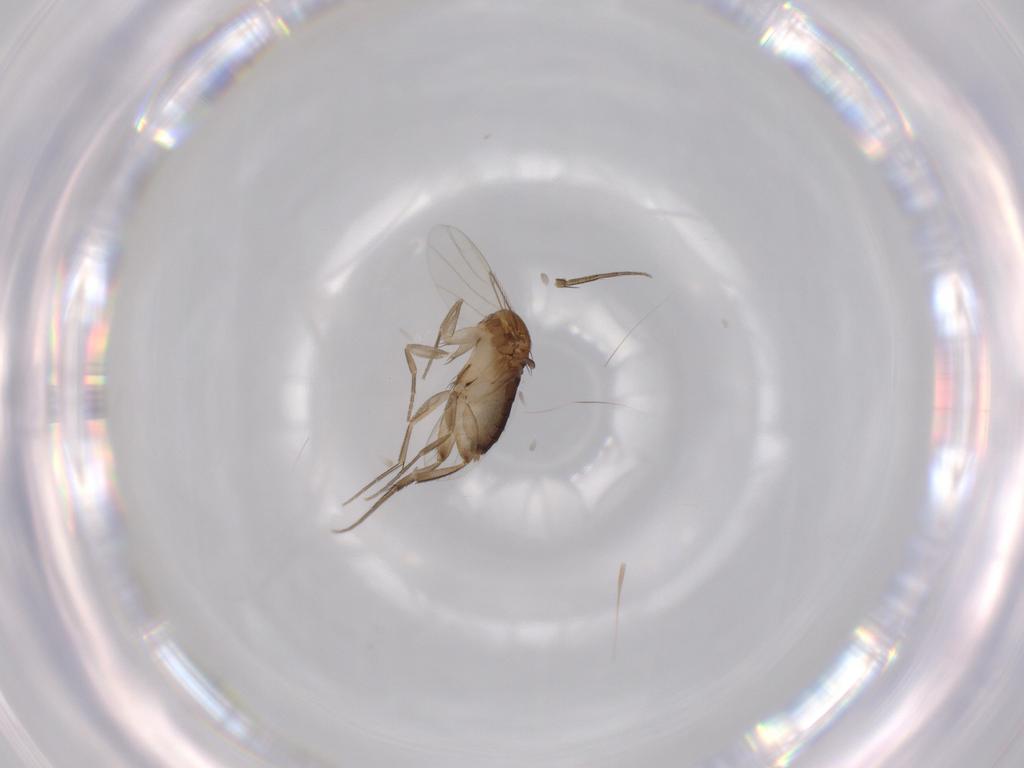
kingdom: Animalia
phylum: Arthropoda
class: Insecta
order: Diptera
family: Phoridae
